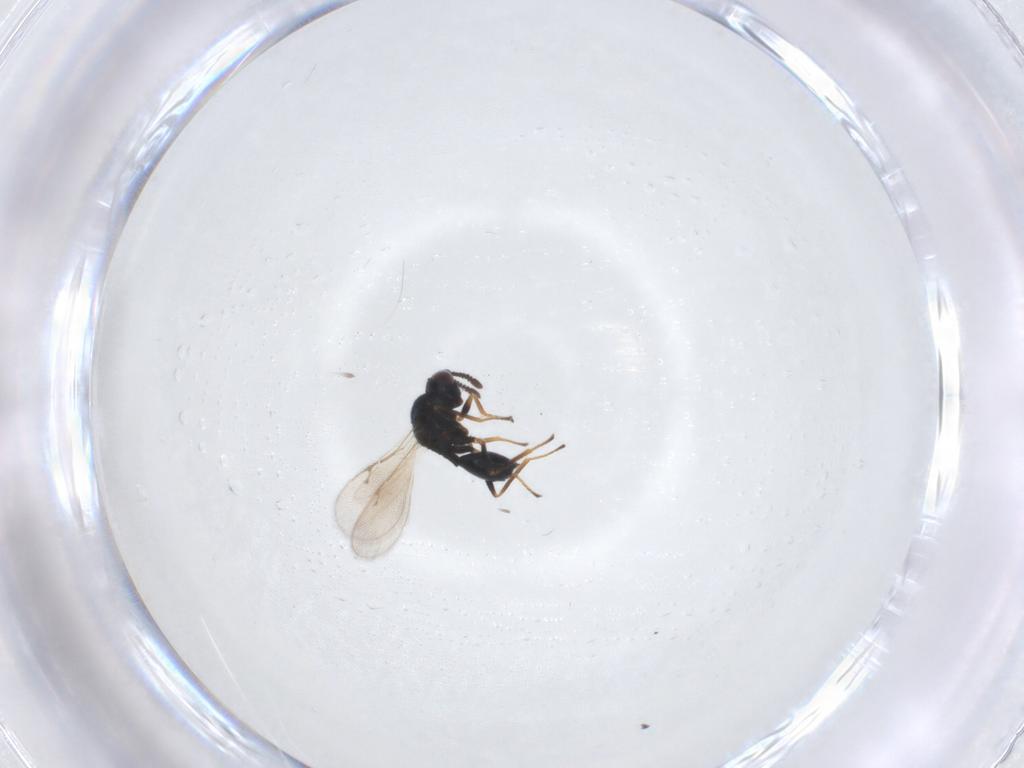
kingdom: Animalia
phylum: Arthropoda
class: Insecta
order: Hymenoptera
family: Chalcidoidea_incertae_sedis
